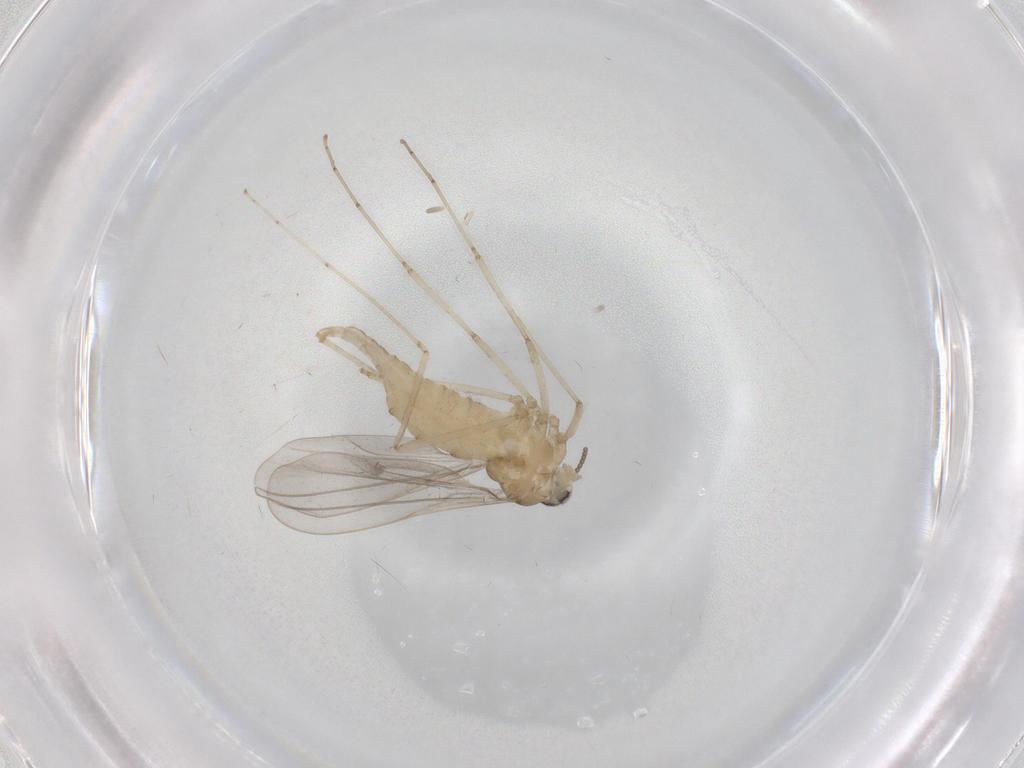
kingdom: Animalia
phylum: Arthropoda
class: Insecta
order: Diptera
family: Cecidomyiidae
